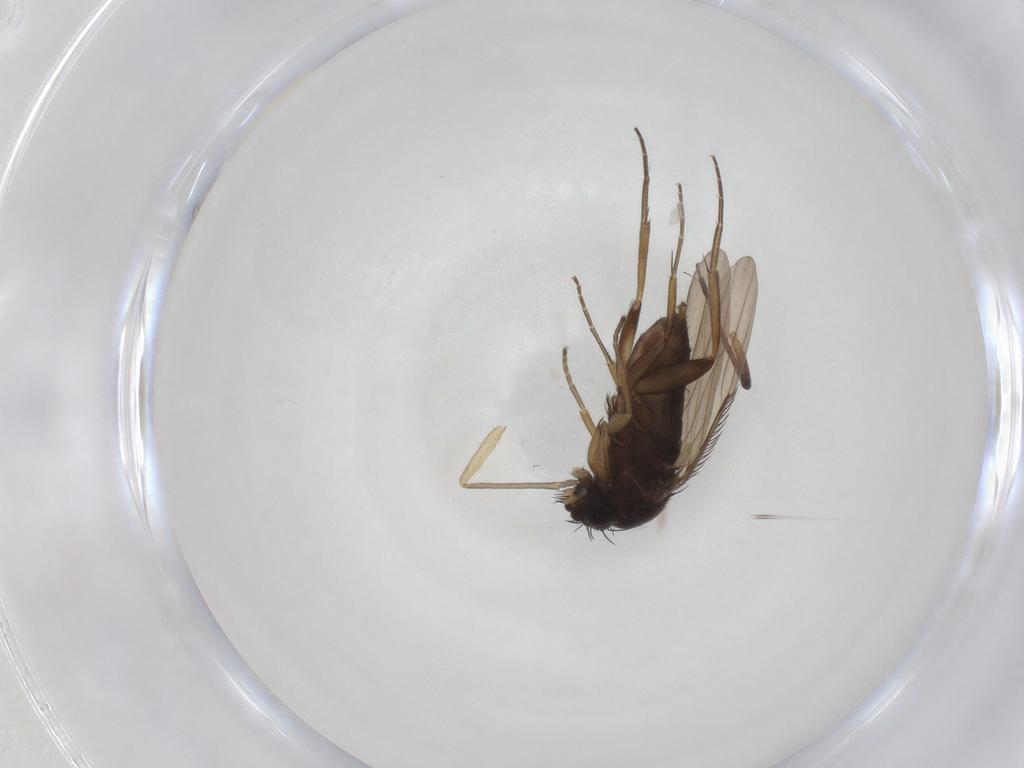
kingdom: Animalia
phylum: Arthropoda
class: Insecta
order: Diptera
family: Phoridae
